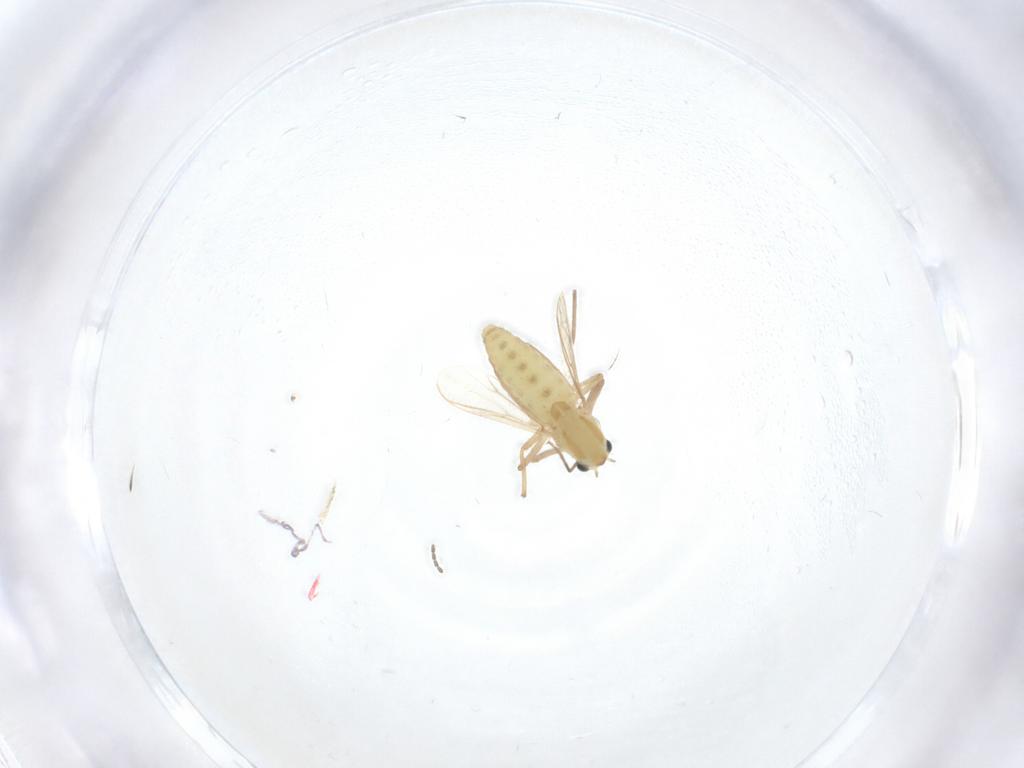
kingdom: Animalia
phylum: Arthropoda
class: Insecta
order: Diptera
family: Chironomidae
